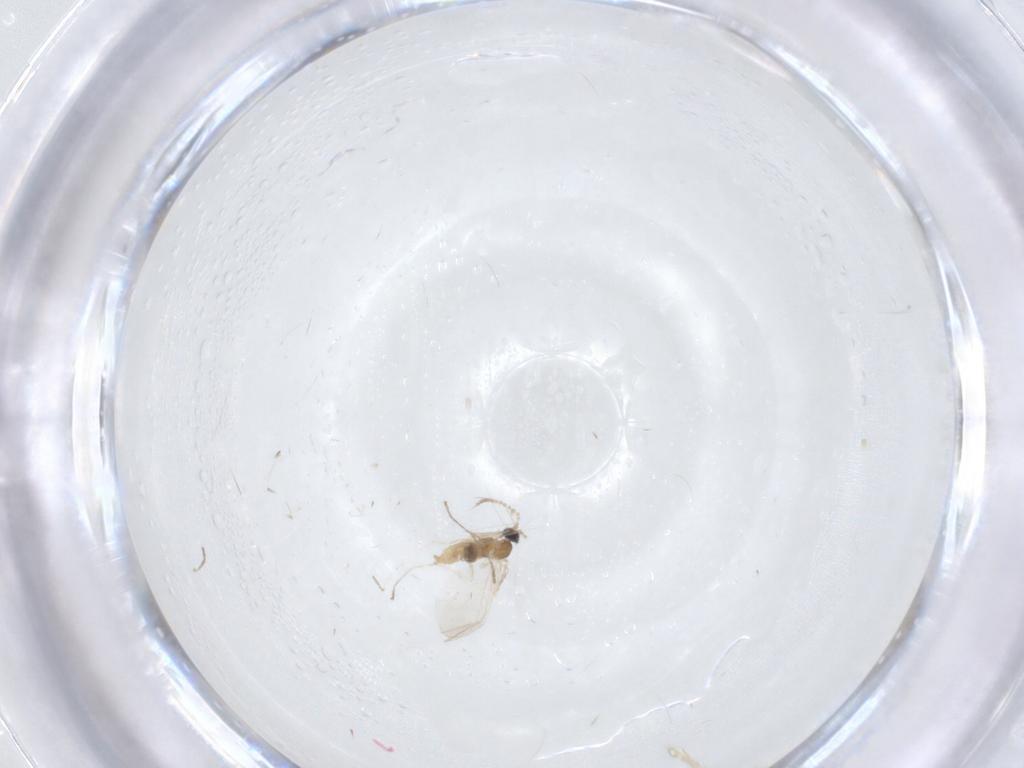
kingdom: Animalia
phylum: Arthropoda
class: Insecta
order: Diptera
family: Cecidomyiidae
